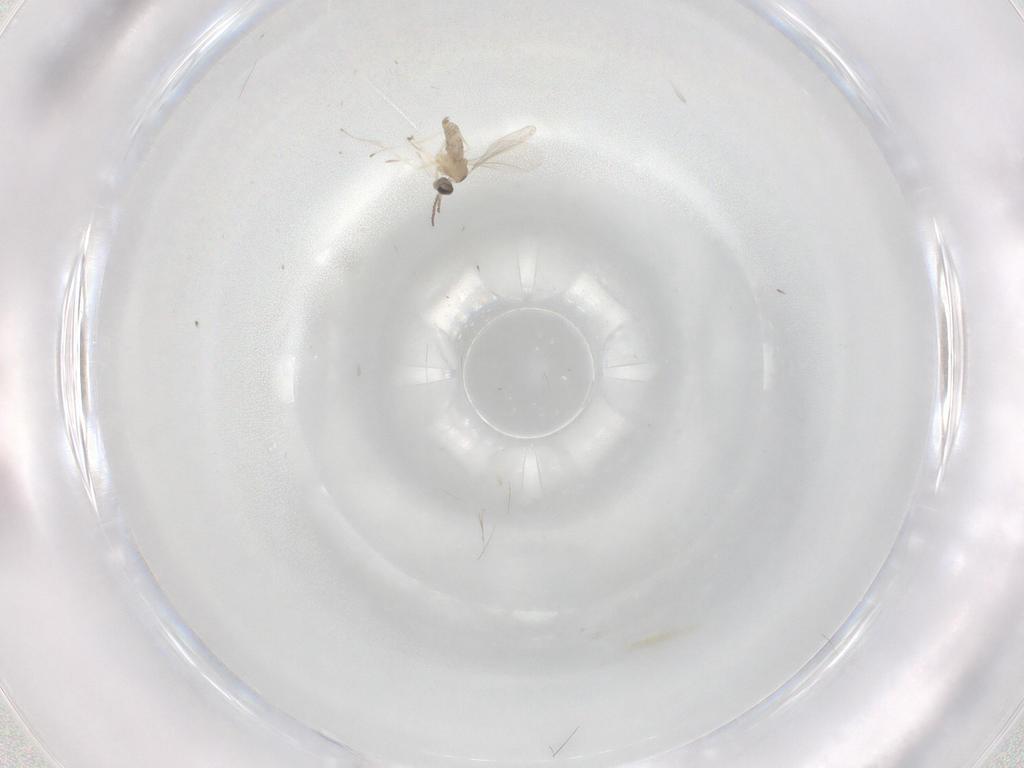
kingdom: Animalia
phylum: Arthropoda
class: Insecta
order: Diptera
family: Cecidomyiidae
